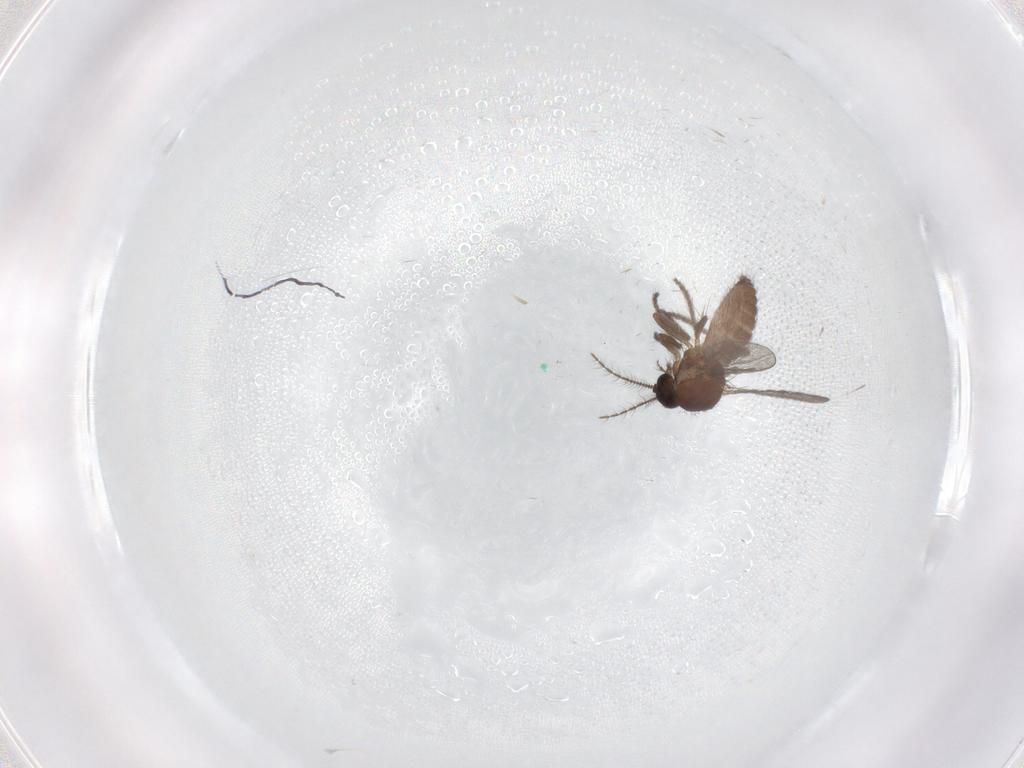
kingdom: Animalia
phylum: Arthropoda
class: Insecta
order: Diptera
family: Ceratopogonidae
